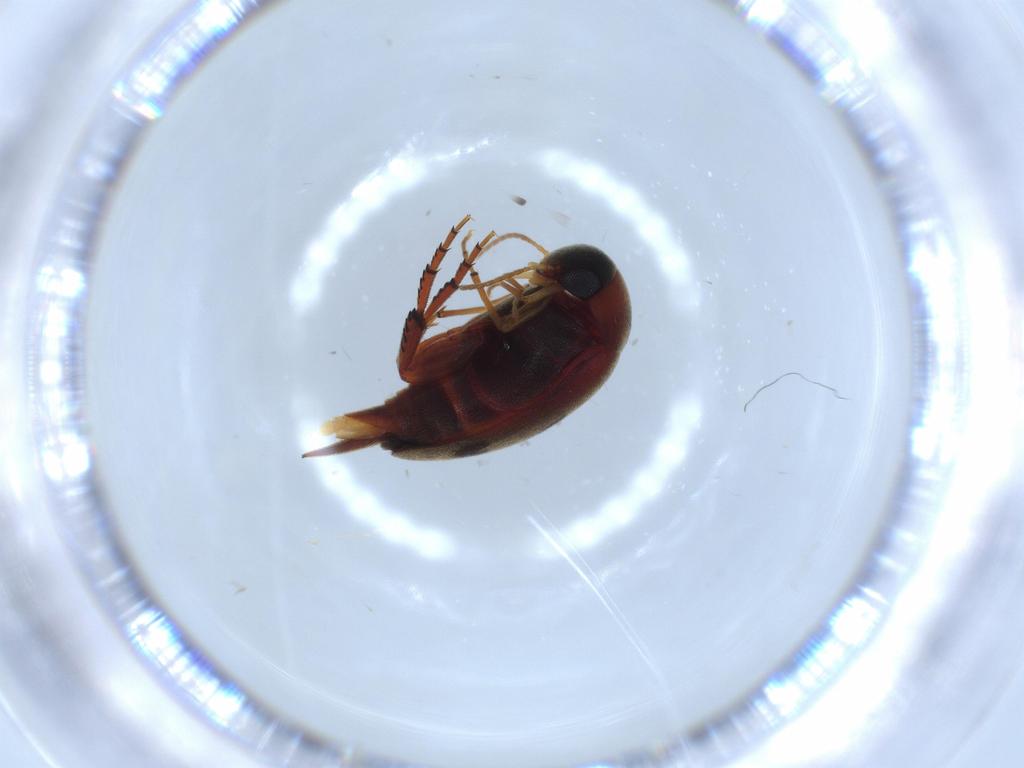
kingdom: Animalia
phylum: Arthropoda
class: Insecta
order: Coleoptera
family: Oedemeridae
